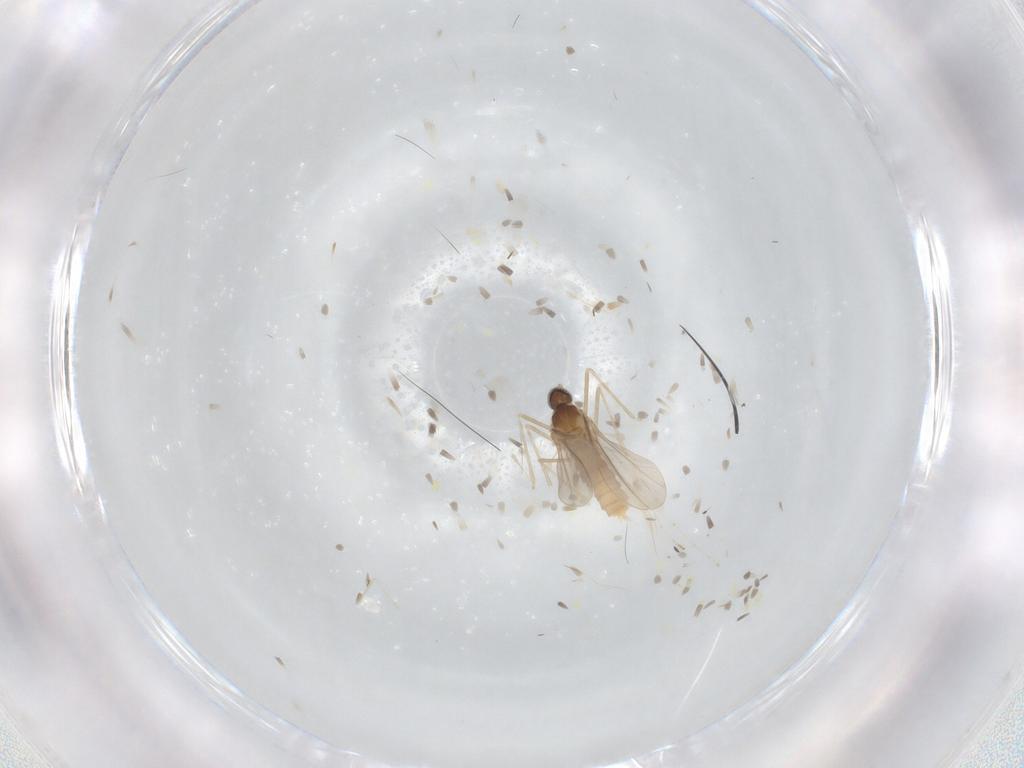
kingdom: Animalia
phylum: Arthropoda
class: Insecta
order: Diptera
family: Cecidomyiidae
